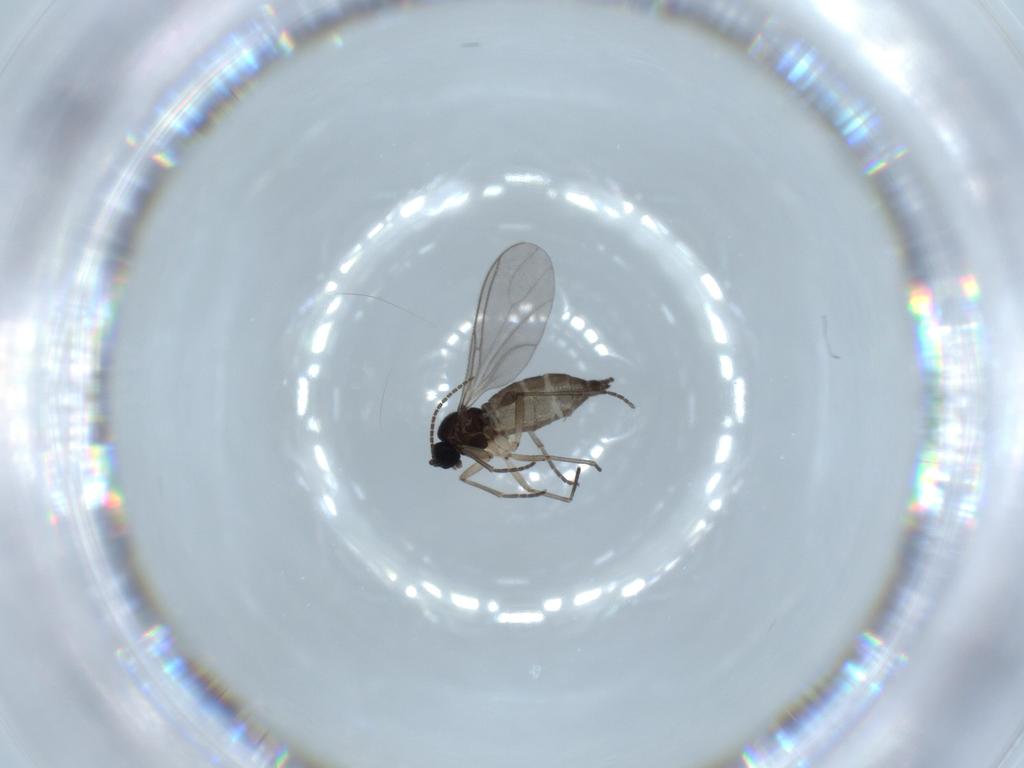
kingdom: Animalia
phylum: Arthropoda
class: Insecta
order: Diptera
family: Sciaridae
